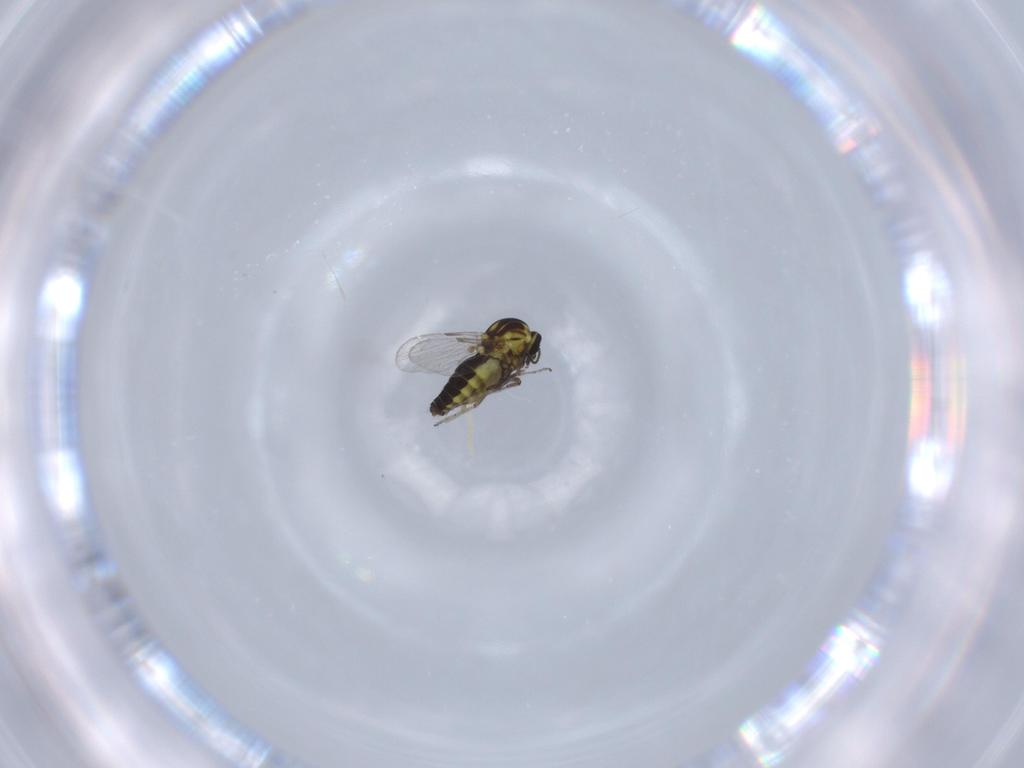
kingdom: Animalia
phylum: Arthropoda
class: Insecta
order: Diptera
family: Ceratopogonidae
